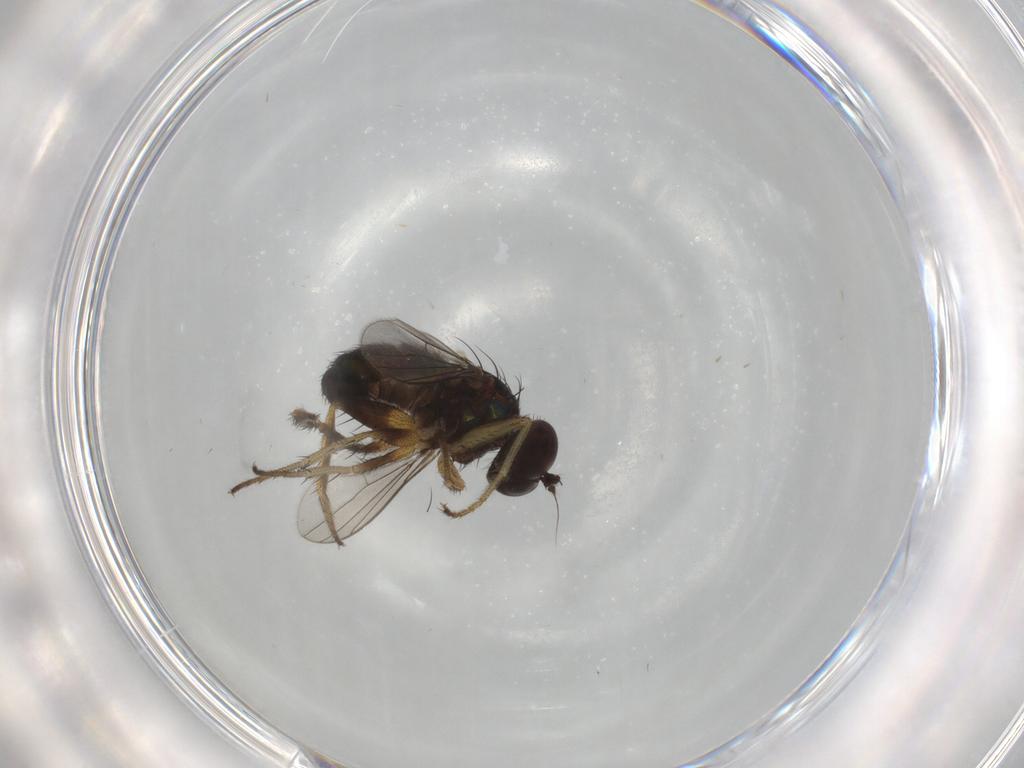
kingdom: Animalia
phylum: Arthropoda
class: Insecta
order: Diptera
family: Dolichopodidae
